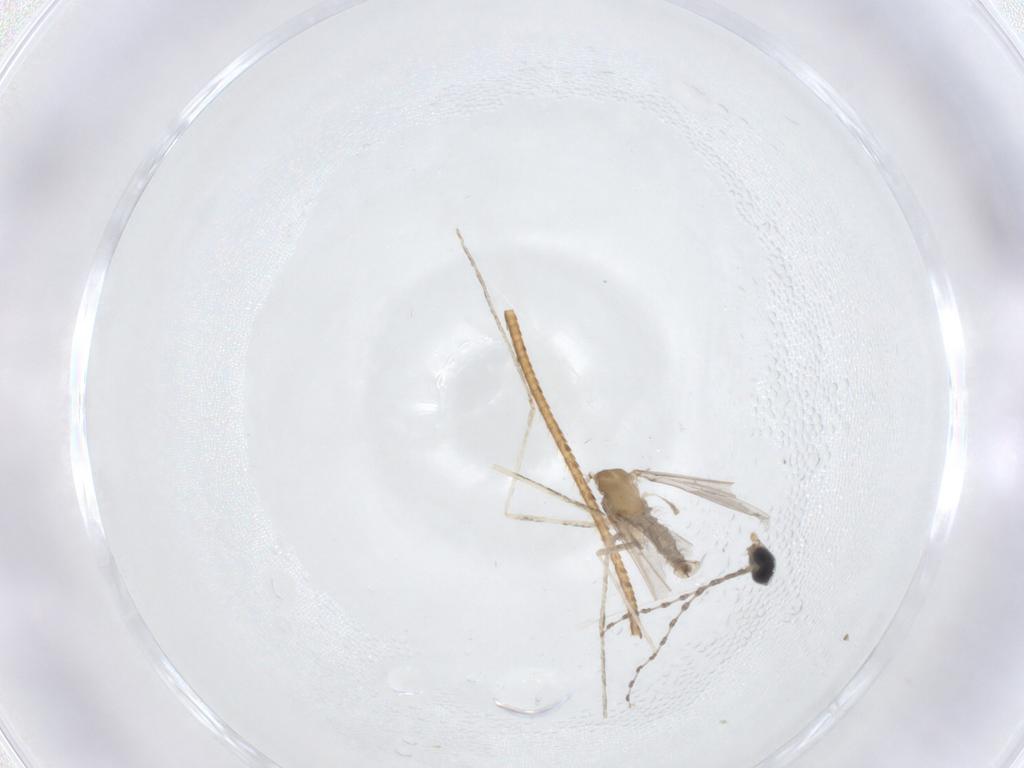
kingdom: Animalia
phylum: Arthropoda
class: Insecta
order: Diptera
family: Cecidomyiidae
